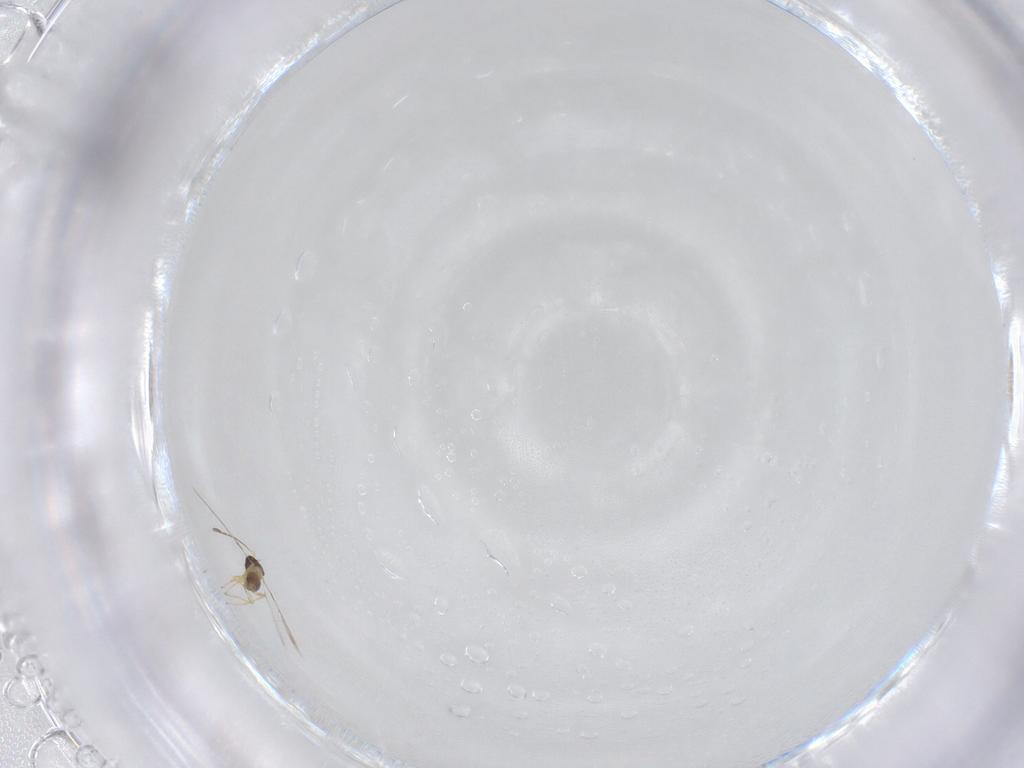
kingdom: Animalia
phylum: Arthropoda
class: Insecta
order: Hymenoptera
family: Mymaridae
